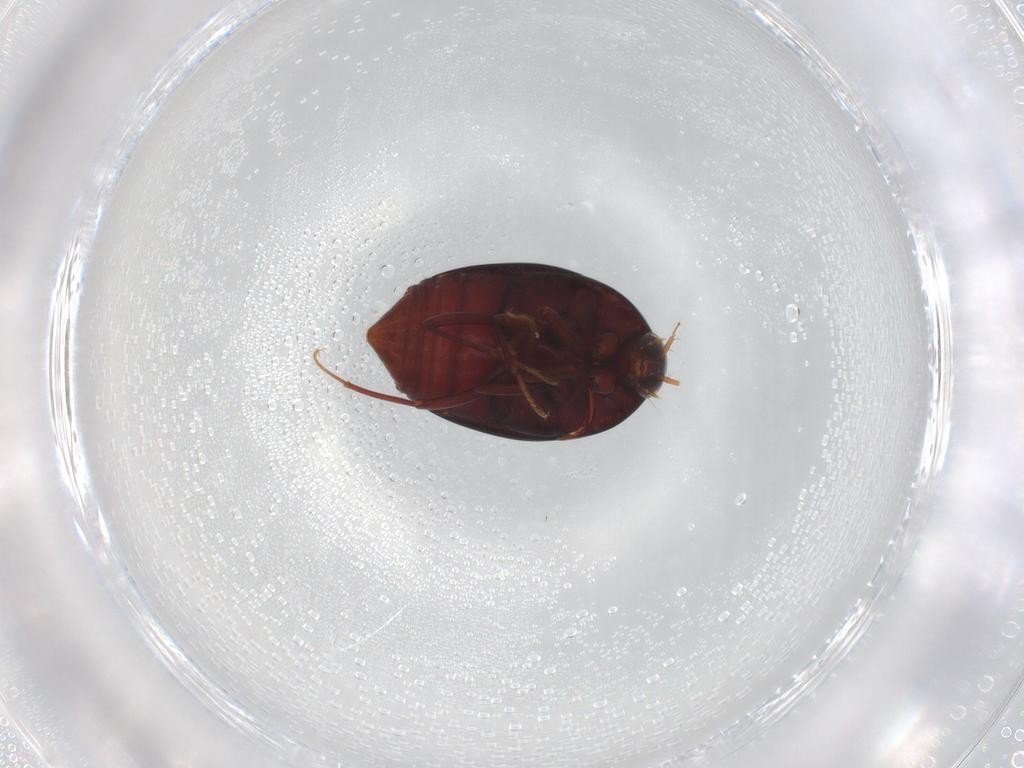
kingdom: Animalia
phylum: Arthropoda
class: Insecta
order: Coleoptera
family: Staphylinidae
